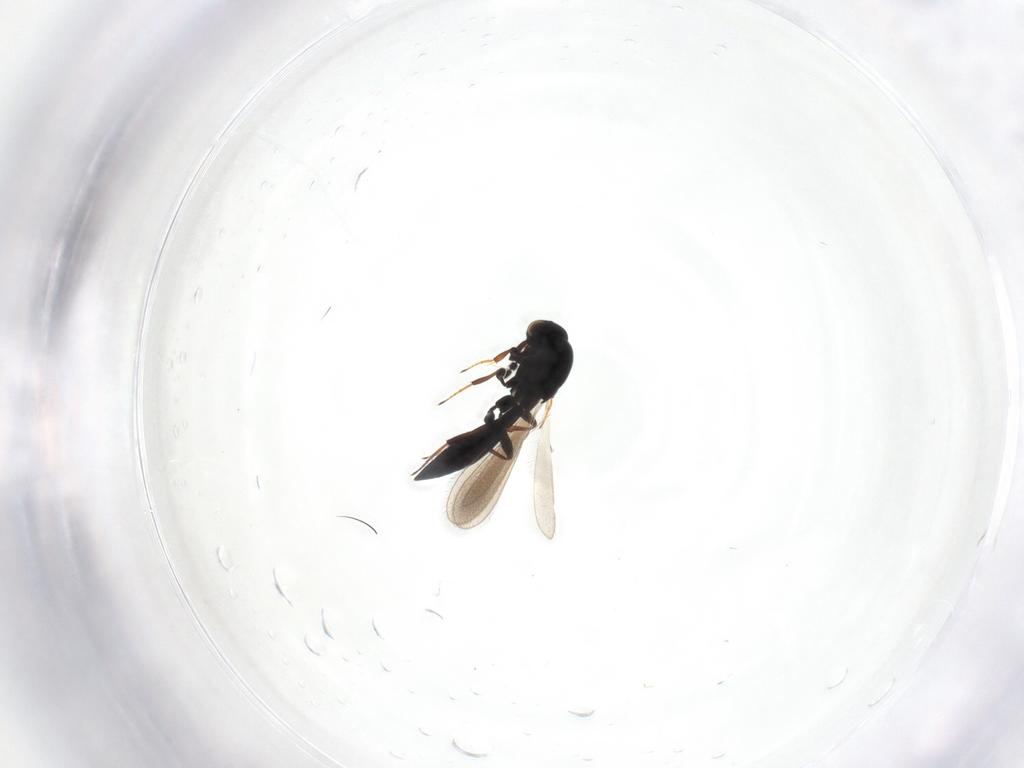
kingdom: Animalia
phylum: Arthropoda
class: Insecta
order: Hymenoptera
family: Platygastridae
